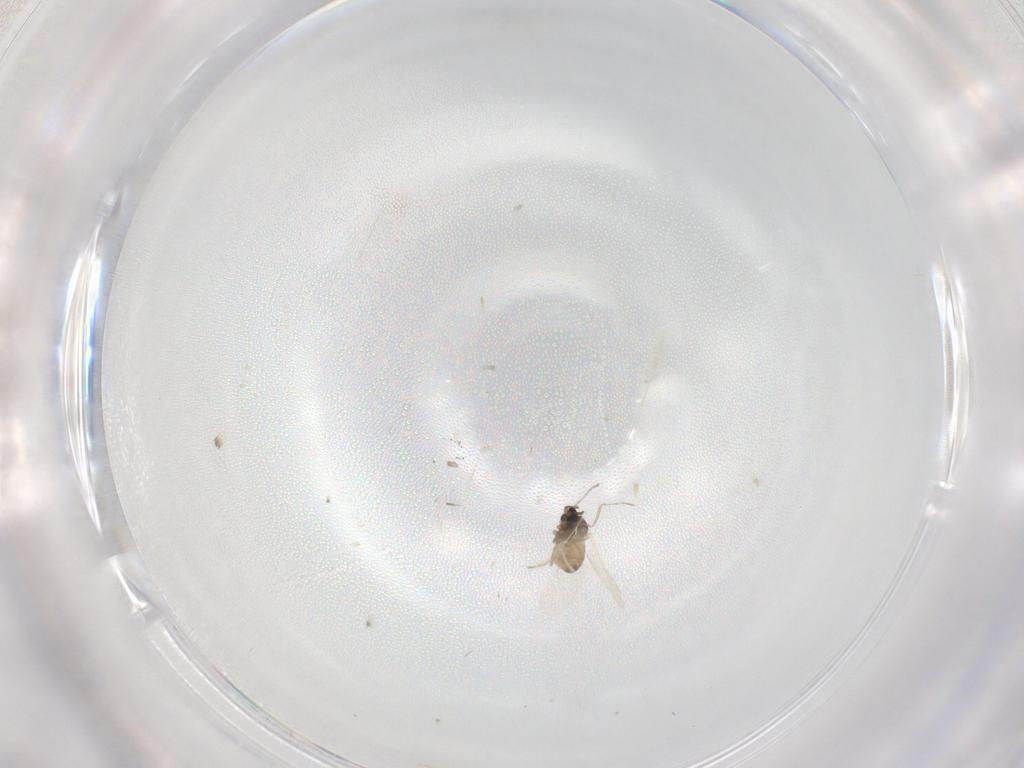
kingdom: Animalia
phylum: Arthropoda
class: Insecta
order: Diptera
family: Cecidomyiidae
